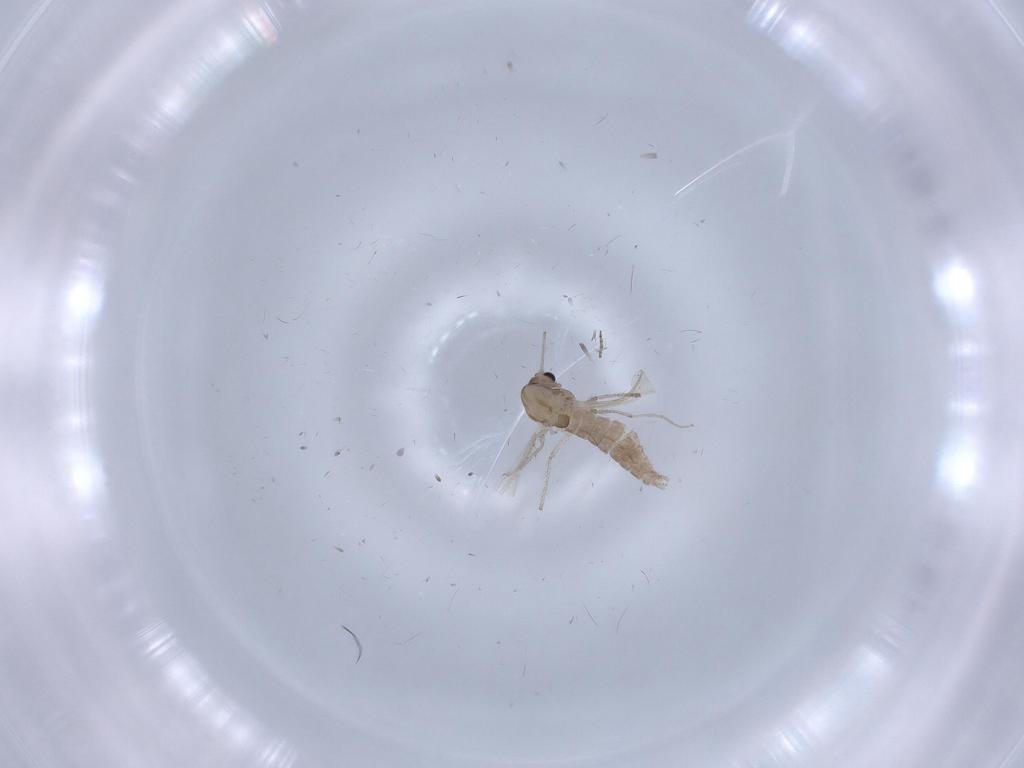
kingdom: Animalia
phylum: Arthropoda
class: Insecta
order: Diptera
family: Chironomidae
